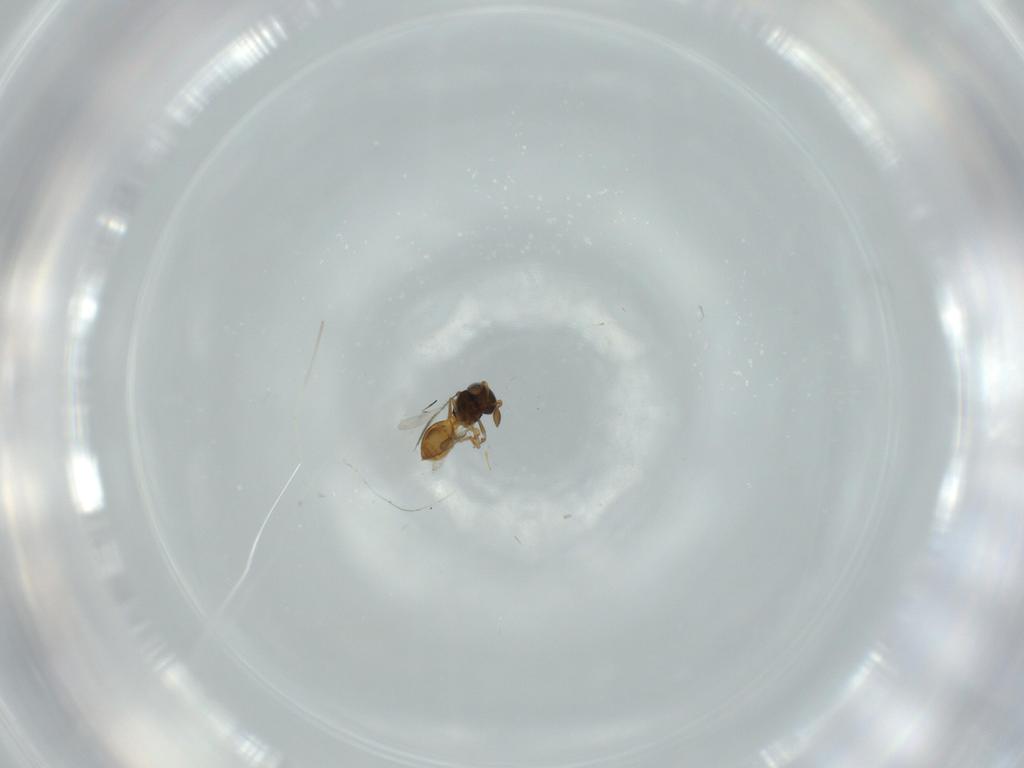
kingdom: Animalia
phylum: Arthropoda
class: Insecta
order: Hymenoptera
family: Scelionidae
